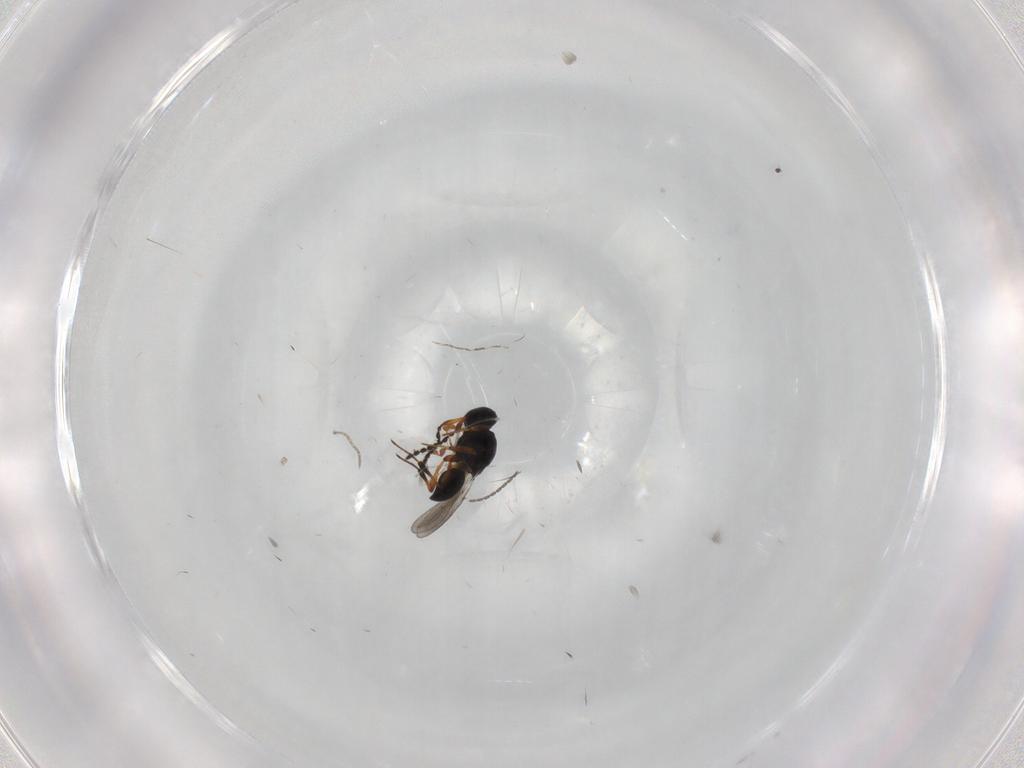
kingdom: Animalia
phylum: Arthropoda
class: Insecta
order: Hymenoptera
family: Platygastridae
